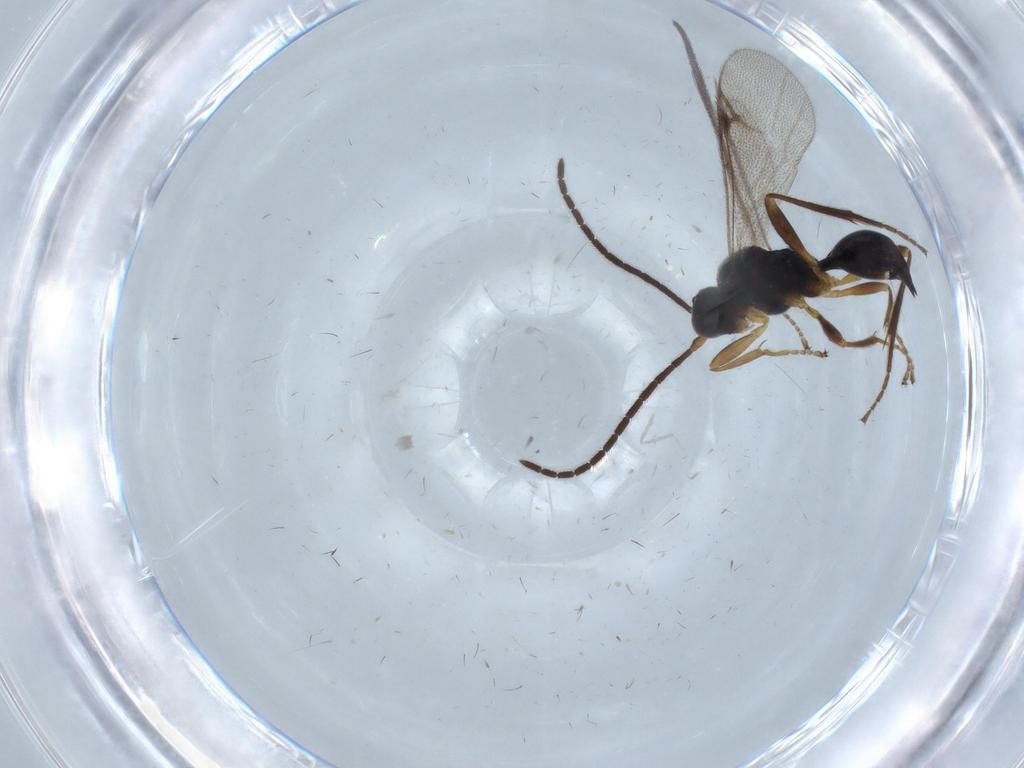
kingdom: Animalia
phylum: Arthropoda
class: Insecta
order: Hymenoptera
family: Proctotrupidae
